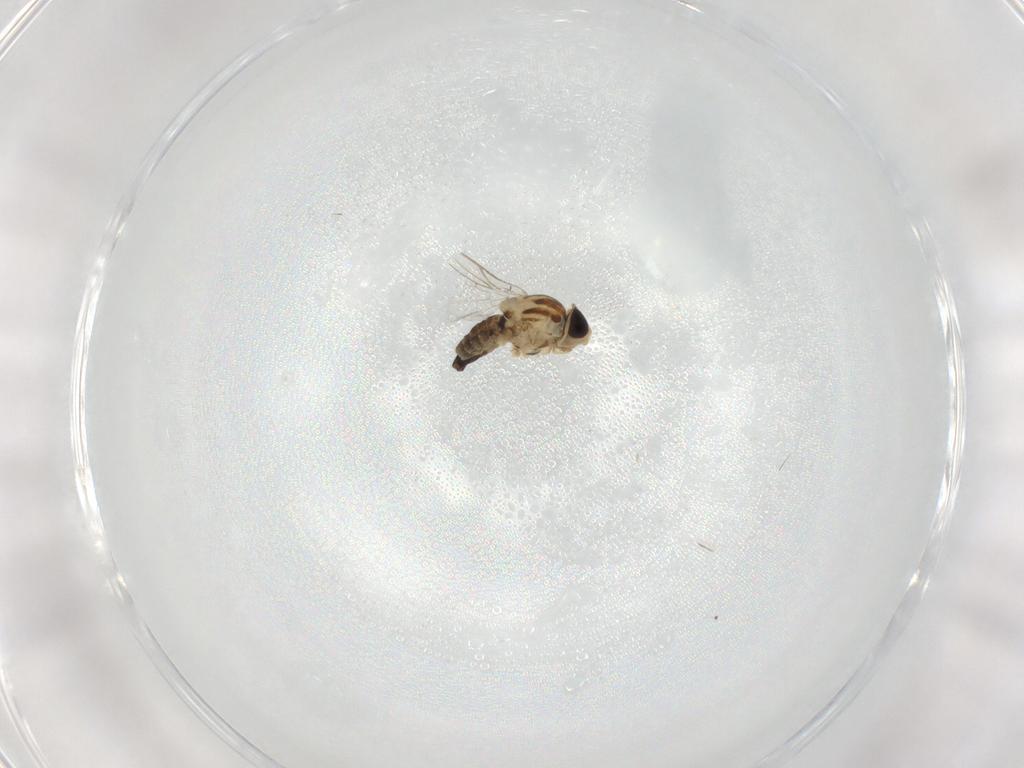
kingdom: Animalia
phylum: Arthropoda
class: Insecta
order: Diptera
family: Agromyzidae
